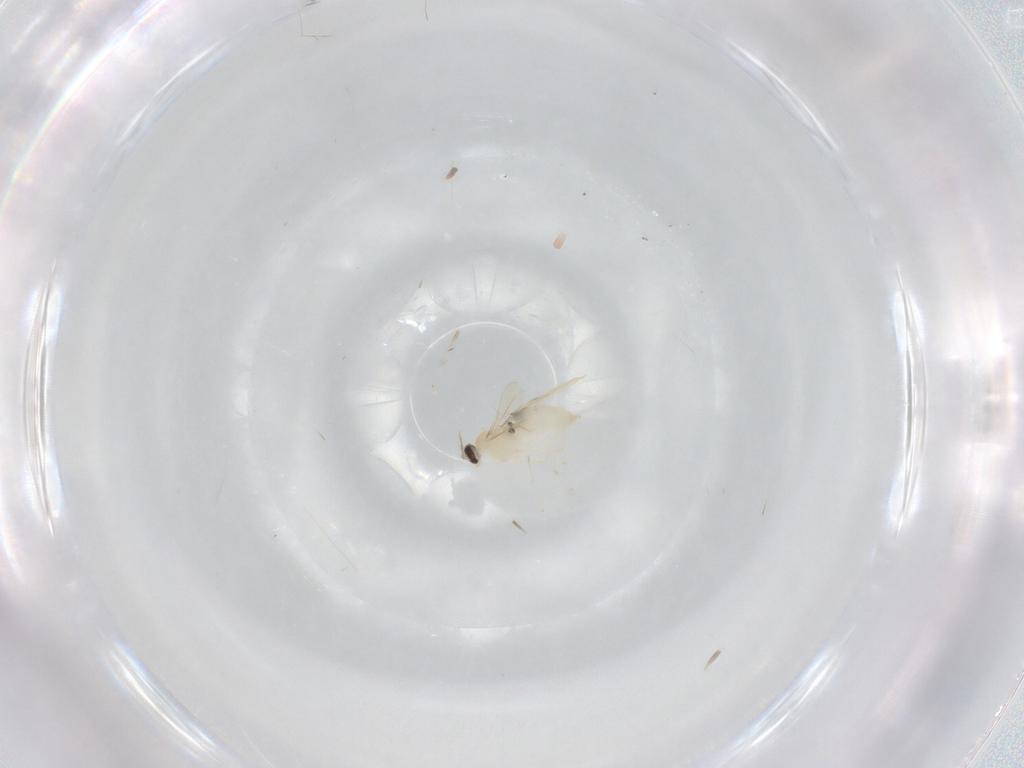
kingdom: Animalia
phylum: Arthropoda
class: Insecta
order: Diptera
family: Cecidomyiidae
